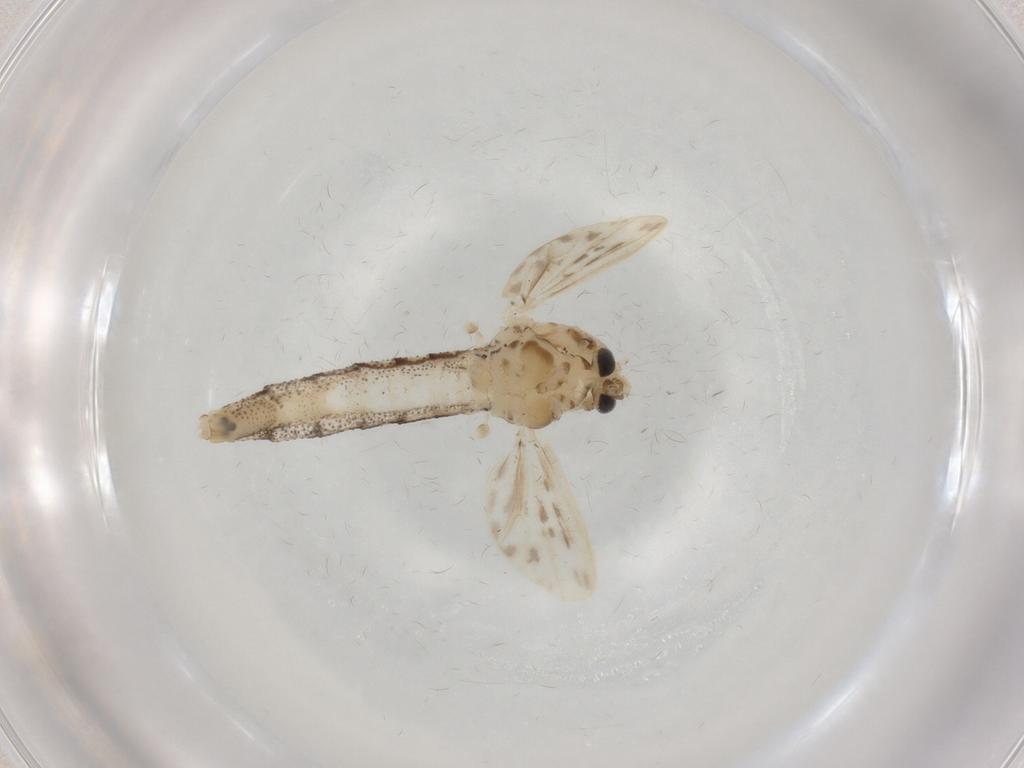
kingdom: Animalia
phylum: Arthropoda
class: Insecta
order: Diptera
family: Chaoboridae
